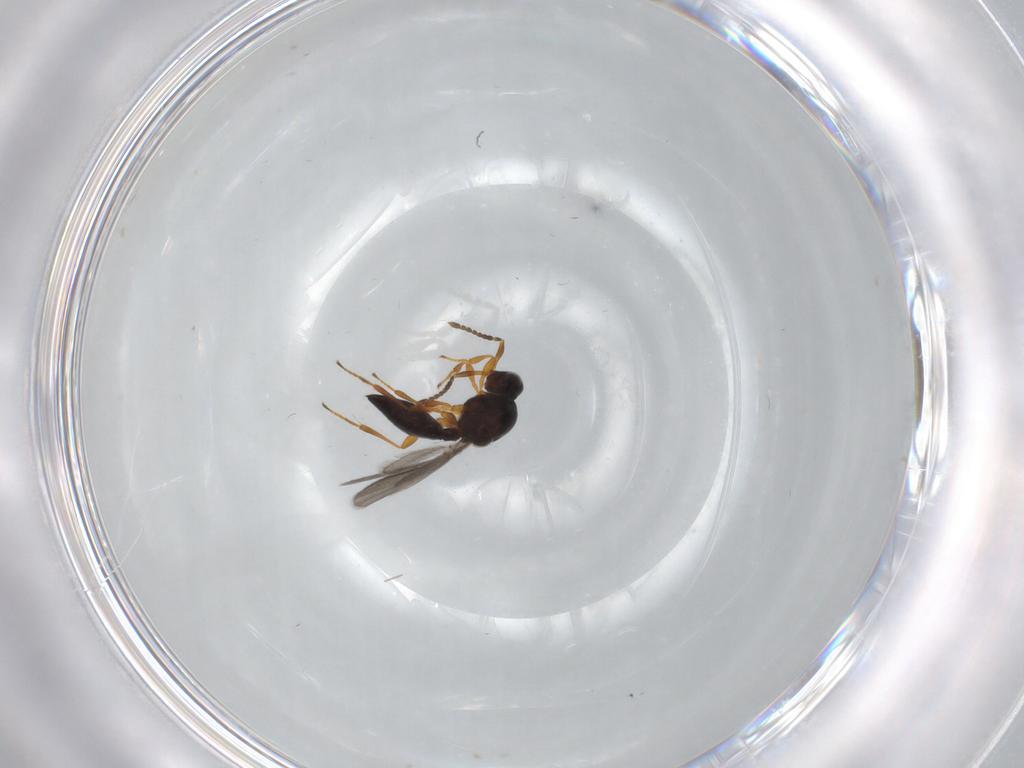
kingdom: Animalia
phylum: Arthropoda
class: Insecta
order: Hymenoptera
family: Platygastridae
